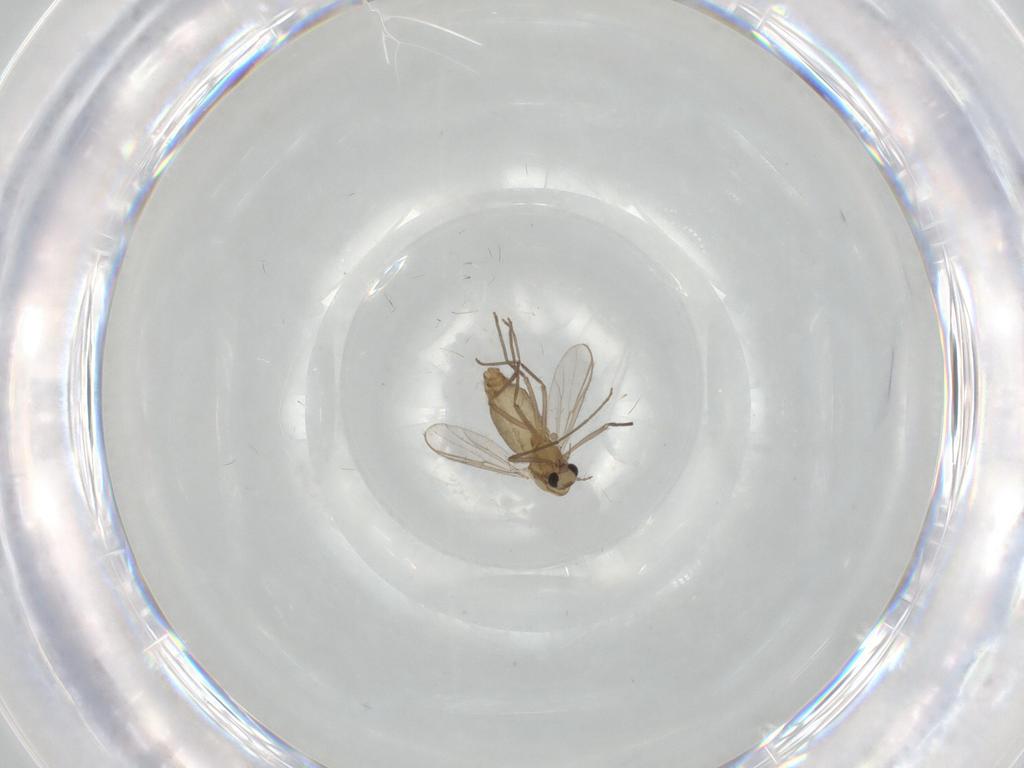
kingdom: Animalia
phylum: Arthropoda
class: Insecta
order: Diptera
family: Chironomidae
